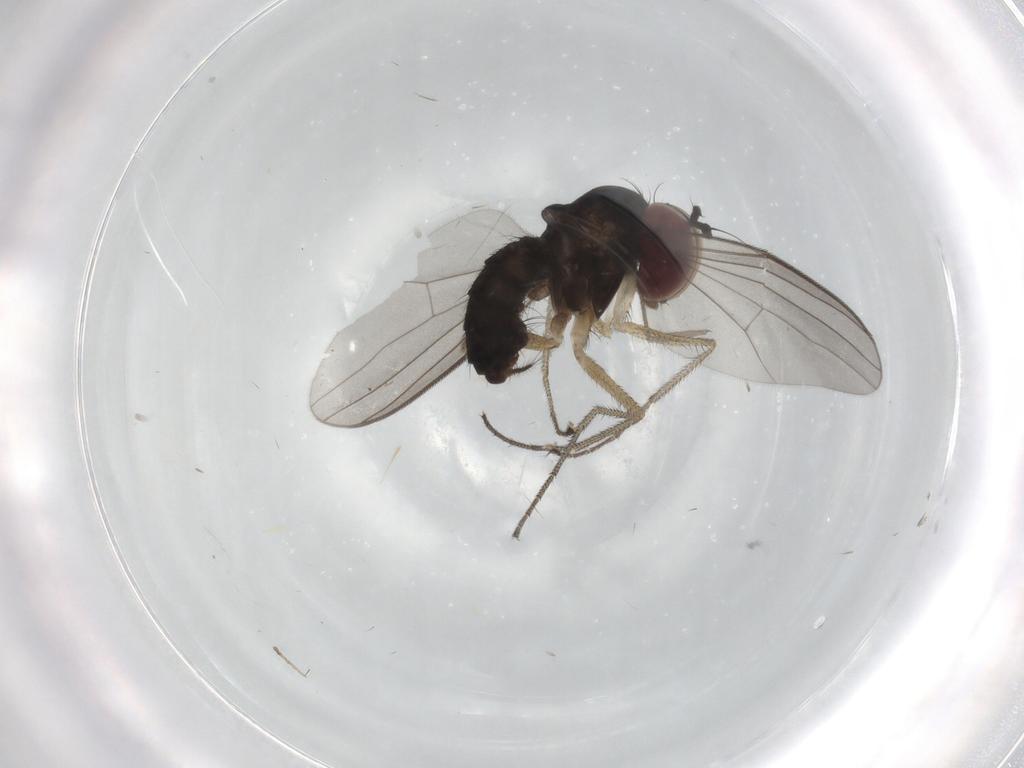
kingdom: Animalia
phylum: Arthropoda
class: Insecta
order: Diptera
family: Dolichopodidae
